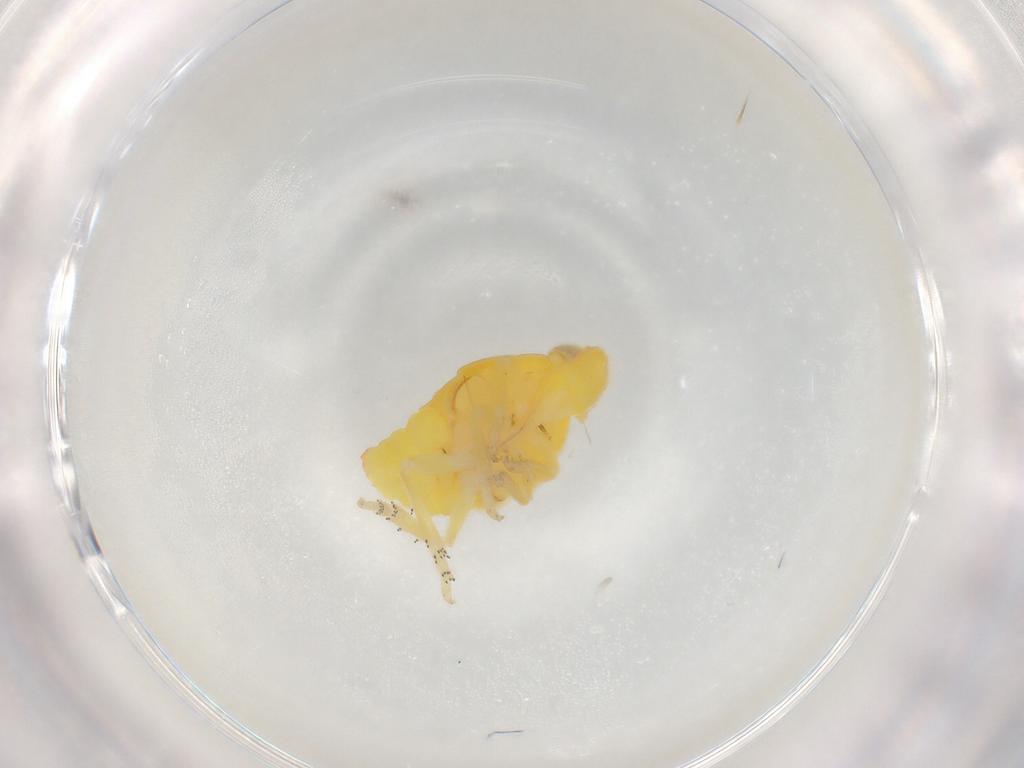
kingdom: Animalia
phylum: Arthropoda
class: Insecta
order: Hemiptera
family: Tropiduchidae
